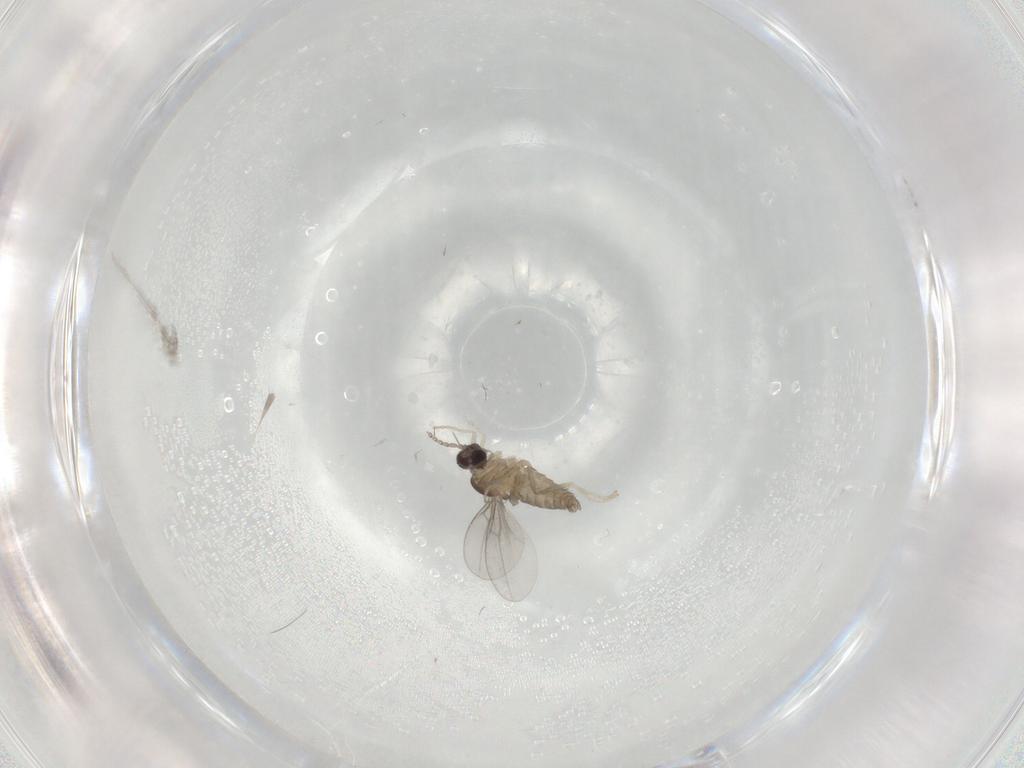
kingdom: Animalia
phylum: Arthropoda
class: Insecta
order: Diptera
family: Cecidomyiidae
